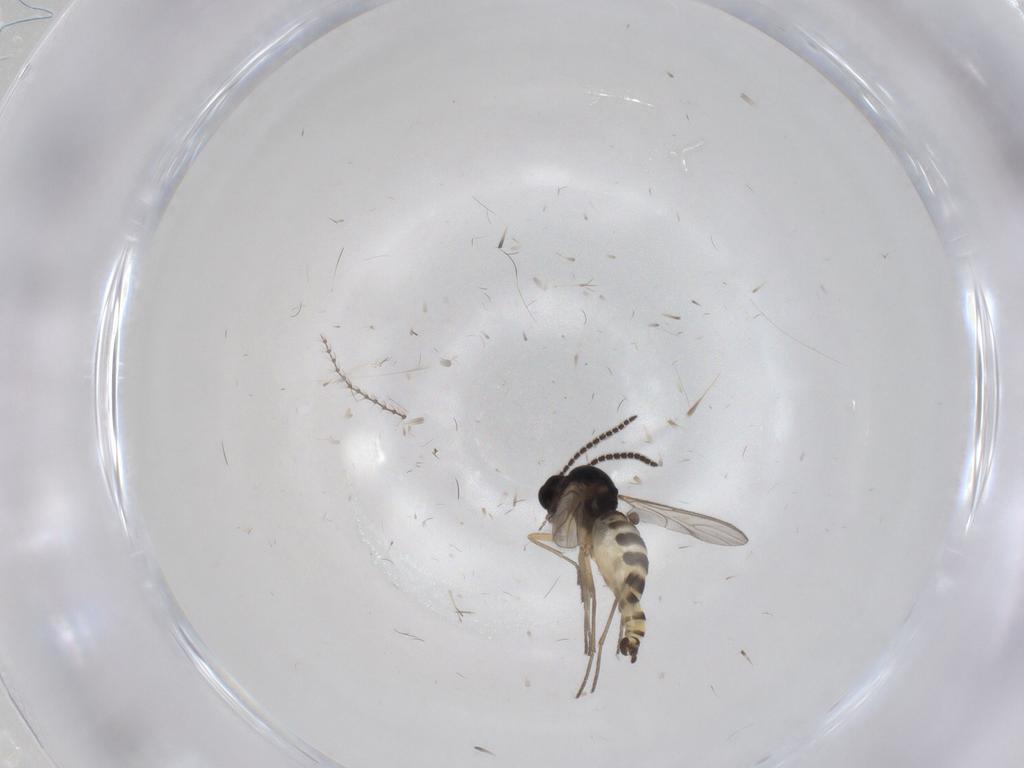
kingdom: Animalia
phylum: Arthropoda
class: Insecta
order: Diptera
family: Sciaridae
